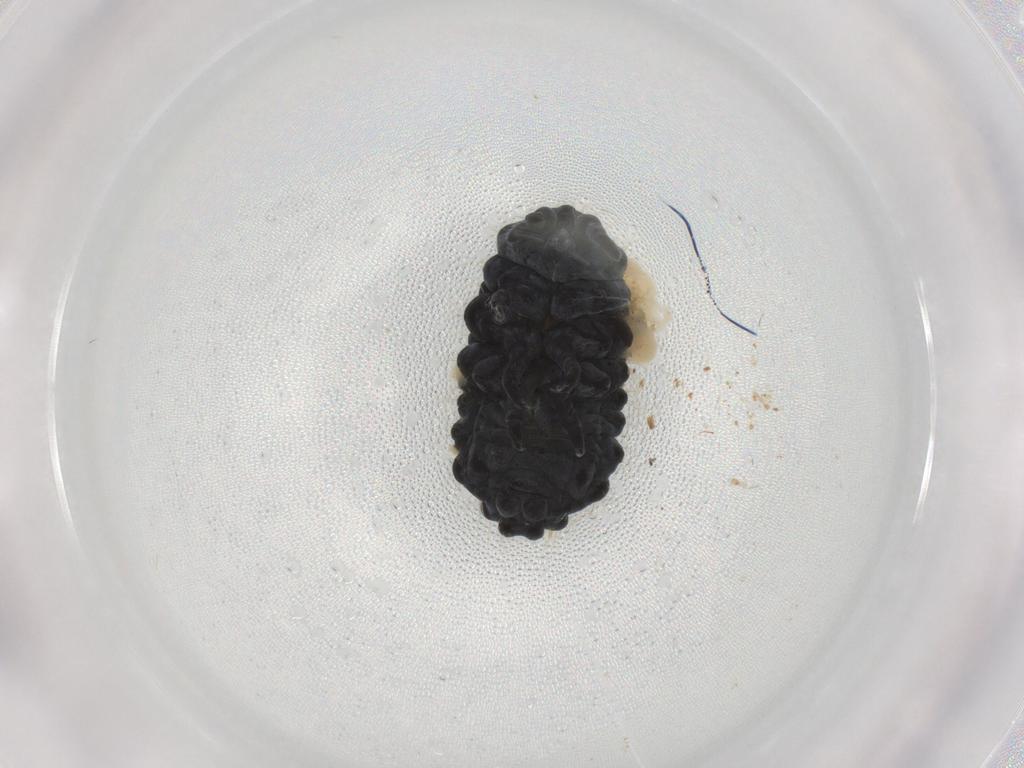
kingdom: Animalia
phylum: Arthropoda
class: Collembola
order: Poduromorpha
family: Neanuridae
